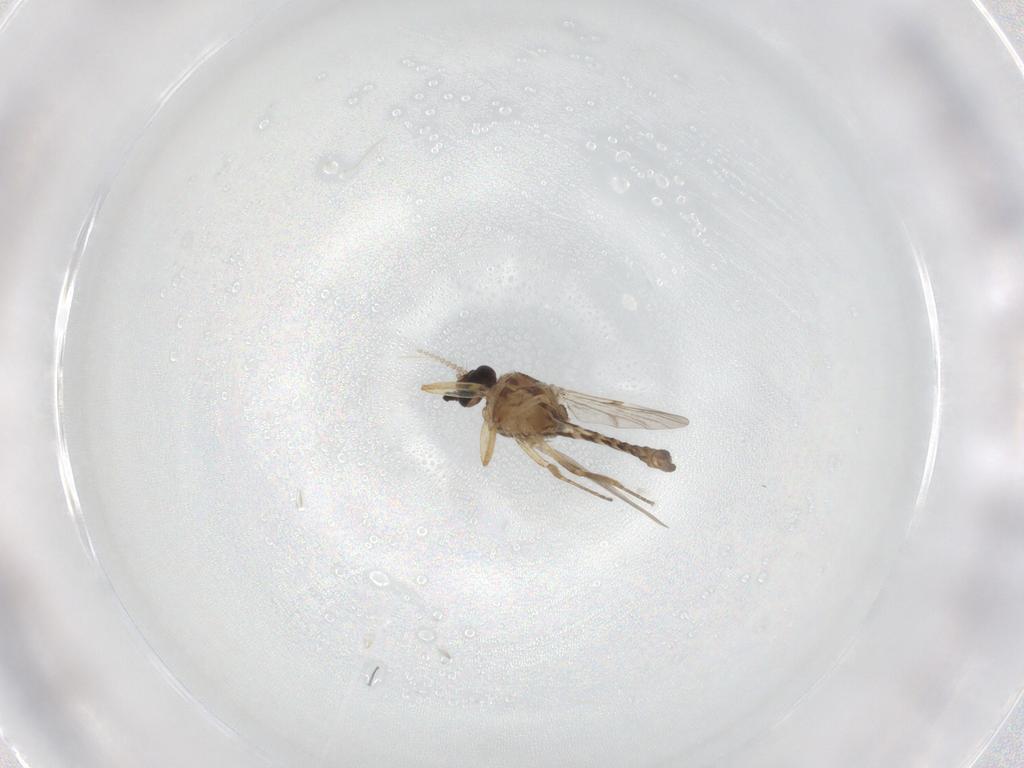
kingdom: Animalia
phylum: Arthropoda
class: Insecta
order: Diptera
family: Ceratopogonidae
